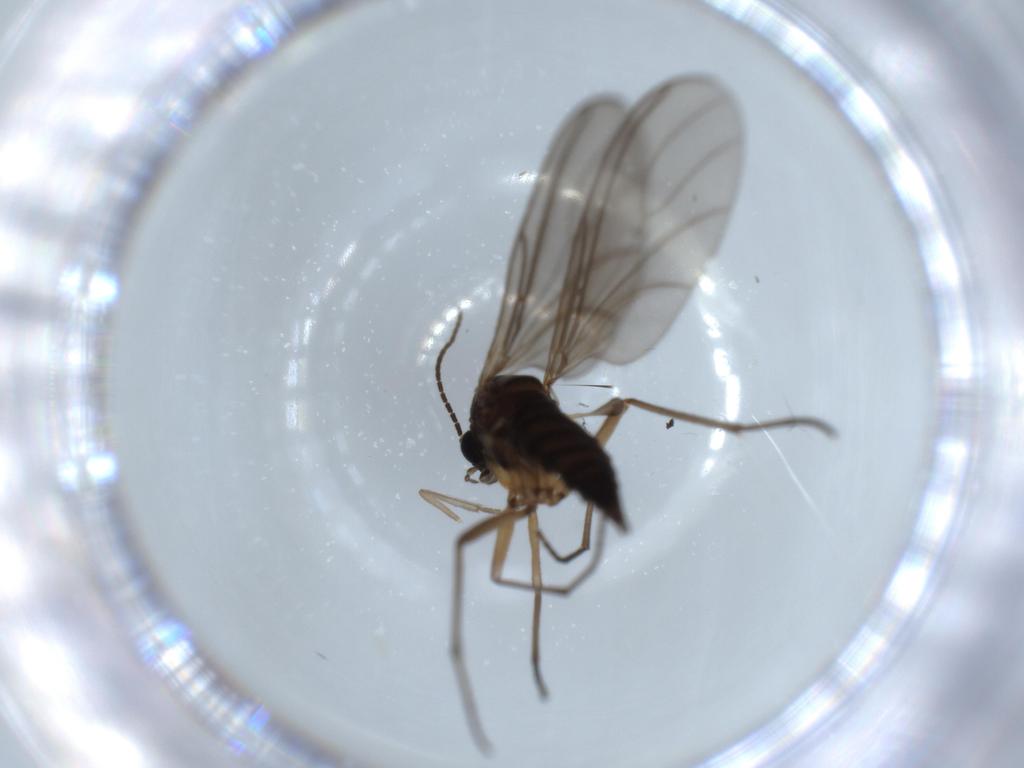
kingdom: Animalia
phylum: Arthropoda
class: Insecta
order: Diptera
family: Sciaridae
